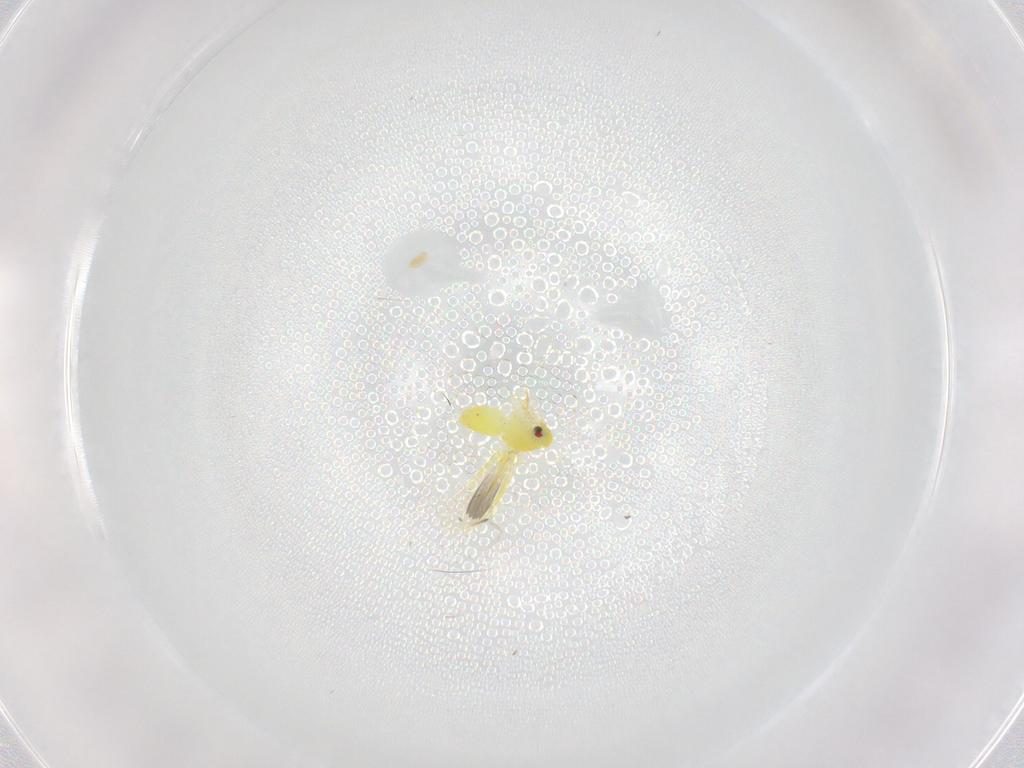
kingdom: Animalia
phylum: Arthropoda
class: Insecta
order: Hemiptera
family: Aleyrodidae
